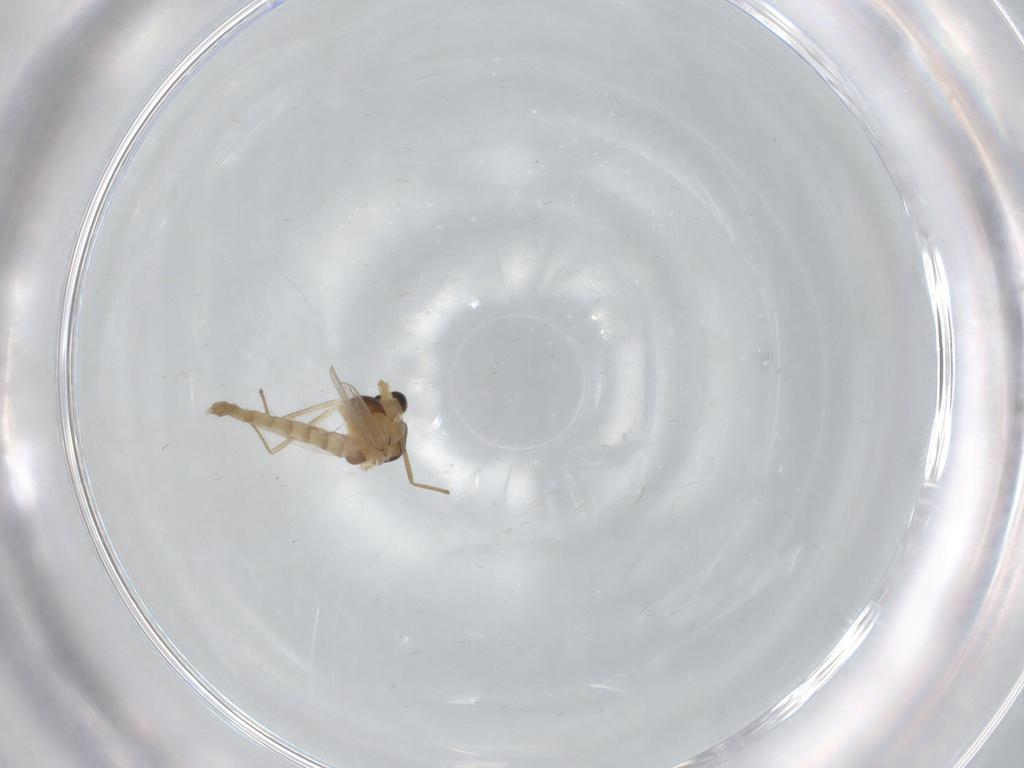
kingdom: Animalia
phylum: Arthropoda
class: Insecta
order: Diptera
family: Chironomidae
